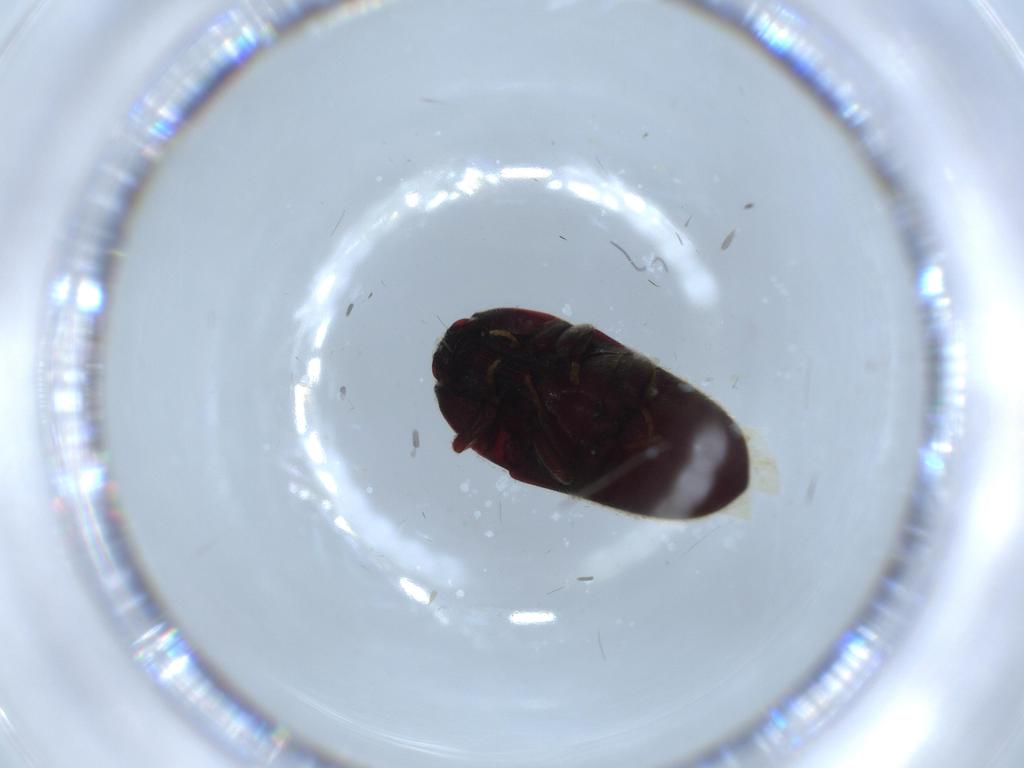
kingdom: Animalia
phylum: Arthropoda
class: Insecta
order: Coleoptera
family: Throscidae
